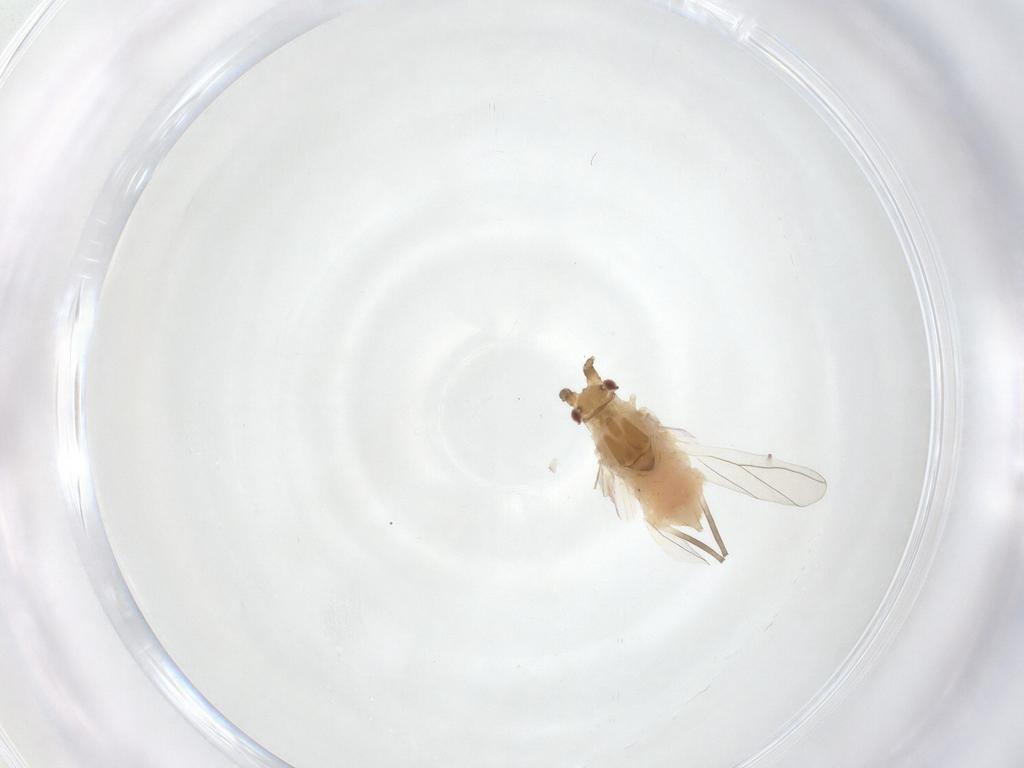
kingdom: Animalia
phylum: Arthropoda
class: Insecta
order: Hemiptera
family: Aphididae
